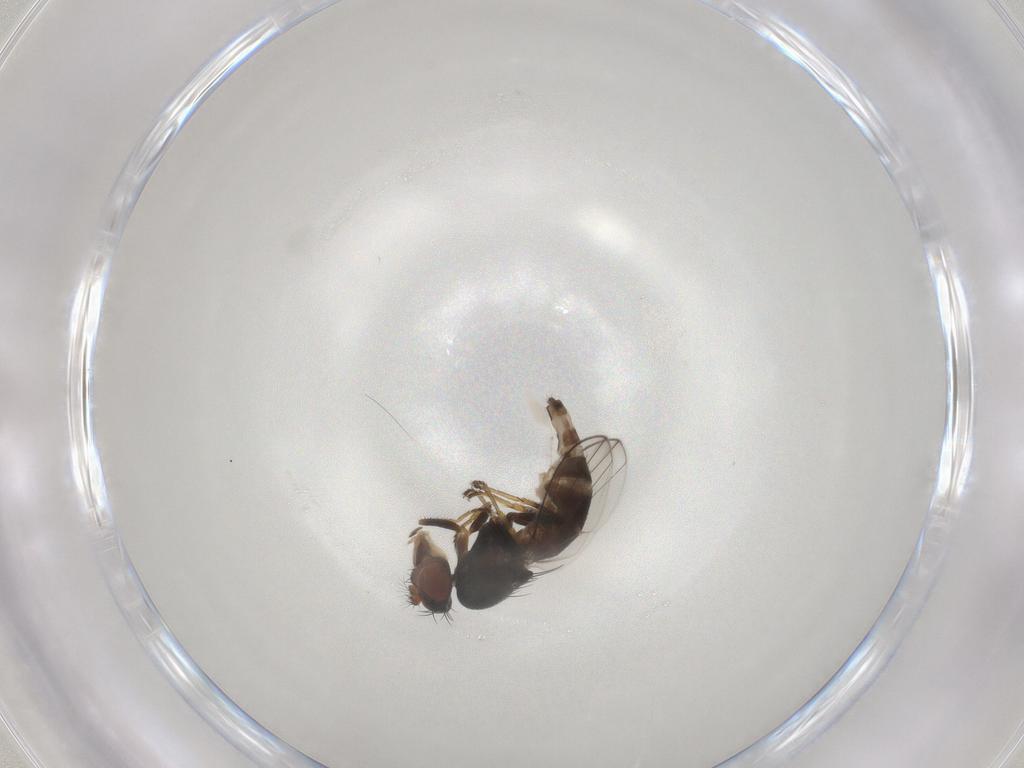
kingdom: Animalia
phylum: Arthropoda
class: Insecta
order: Diptera
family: Ephydridae
